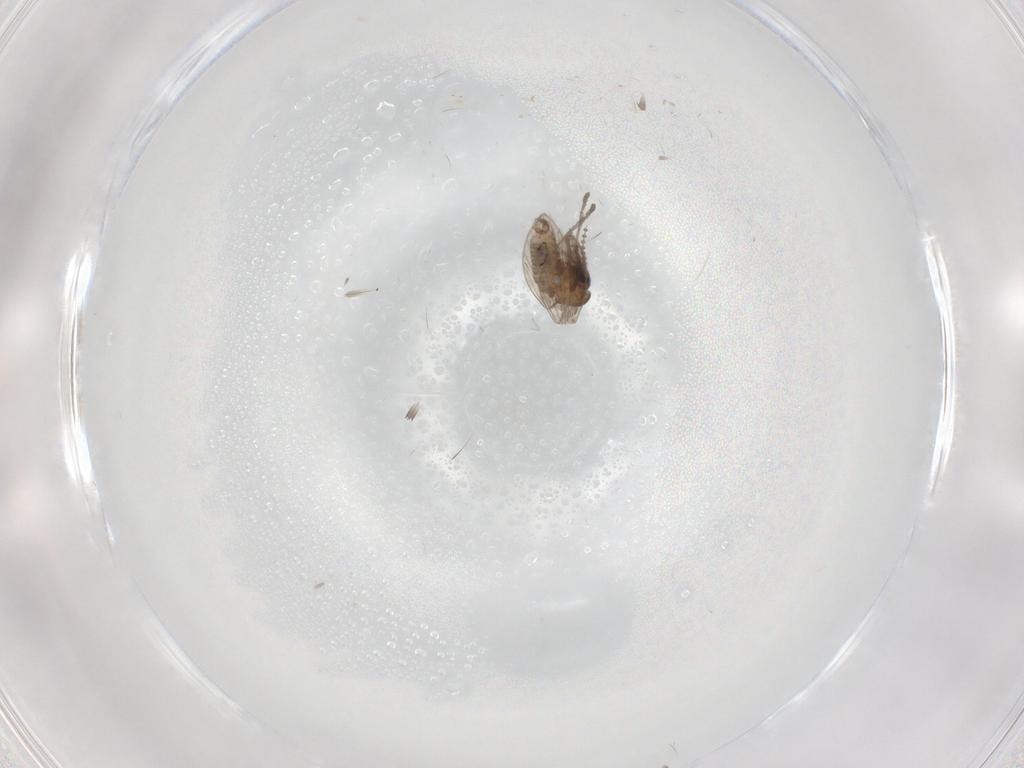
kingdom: Animalia
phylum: Arthropoda
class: Insecta
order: Diptera
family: Psychodidae
